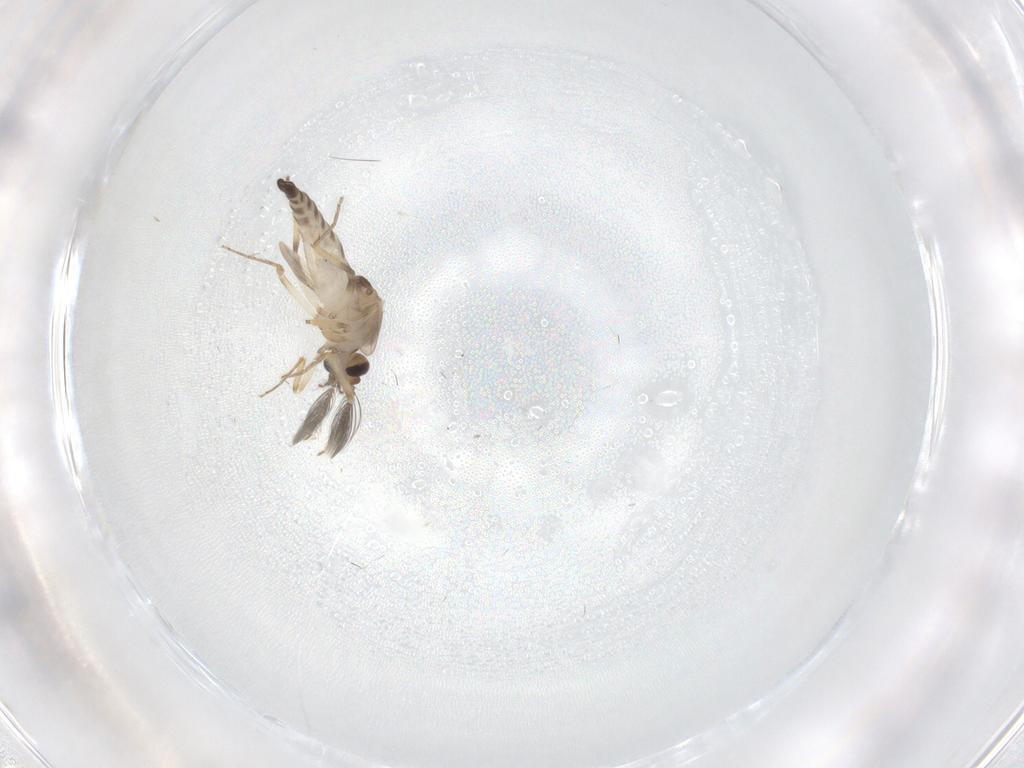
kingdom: Animalia
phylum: Arthropoda
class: Insecta
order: Diptera
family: Ceratopogonidae
